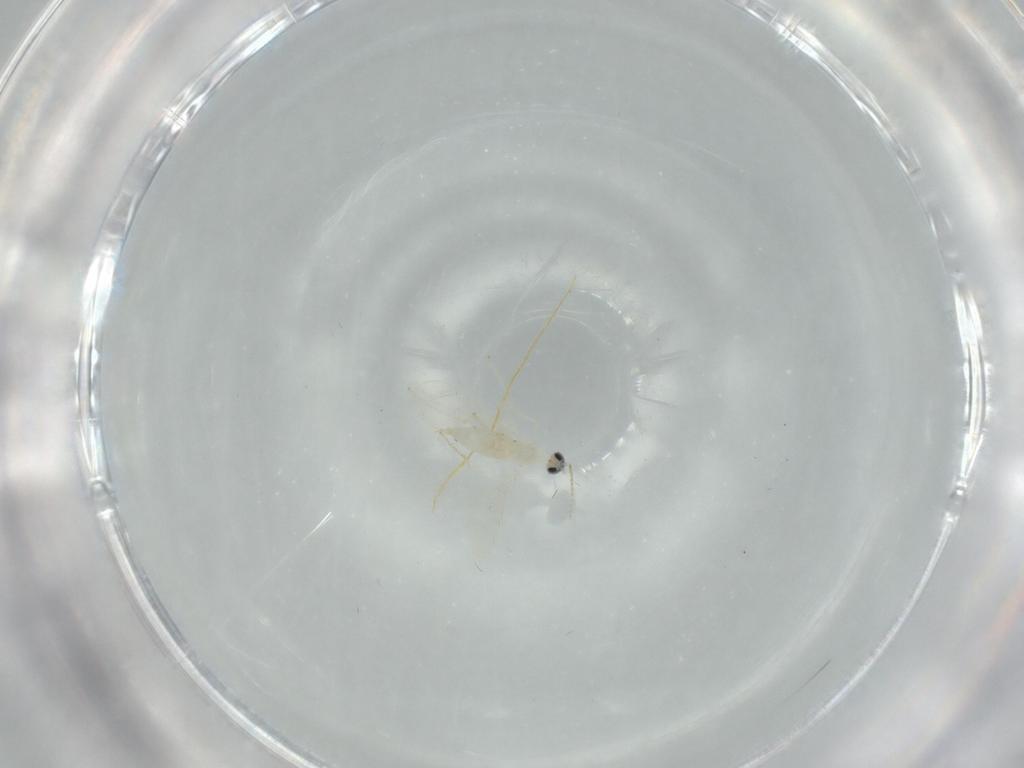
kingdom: Animalia
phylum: Arthropoda
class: Insecta
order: Diptera
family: Cecidomyiidae
